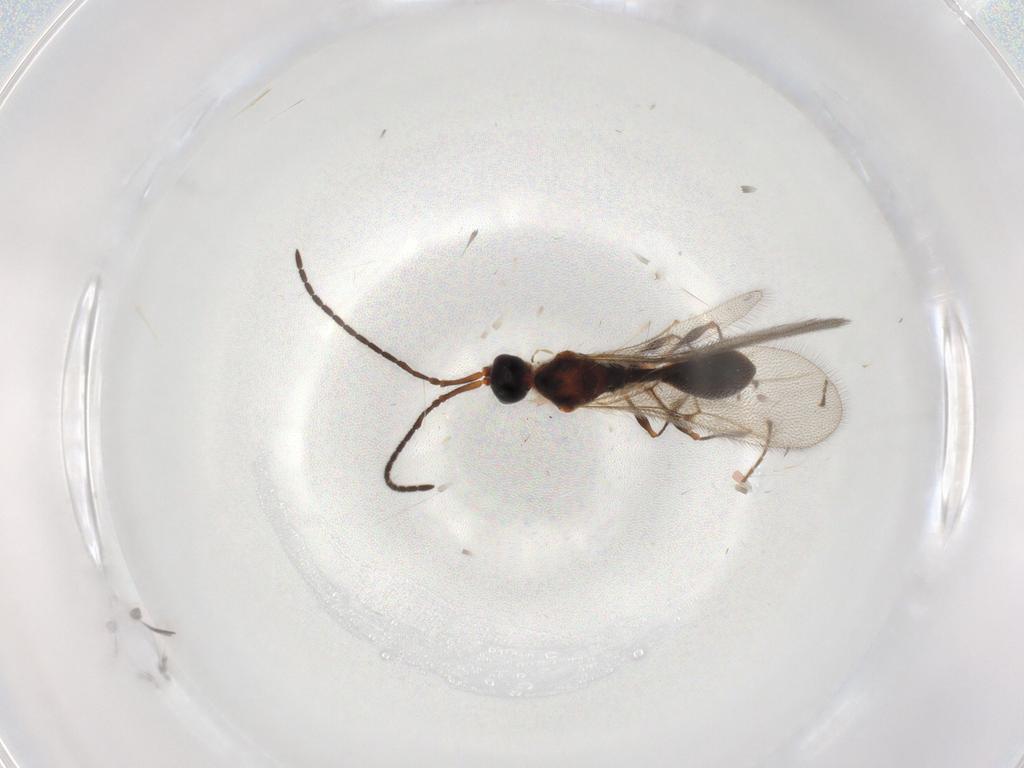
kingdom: Animalia
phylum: Arthropoda
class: Insecta
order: Hymenoptera
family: Diapriidae
